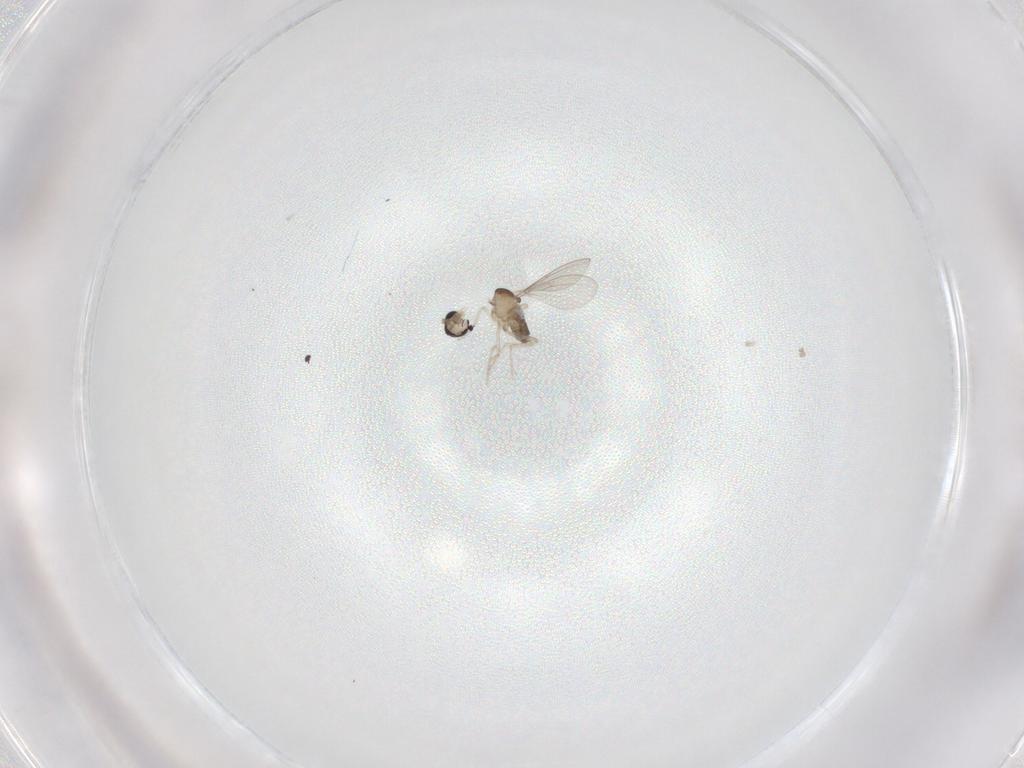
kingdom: Animalia
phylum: Arthropoda
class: Insecta
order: Diptera
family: Cecidomyiidae
